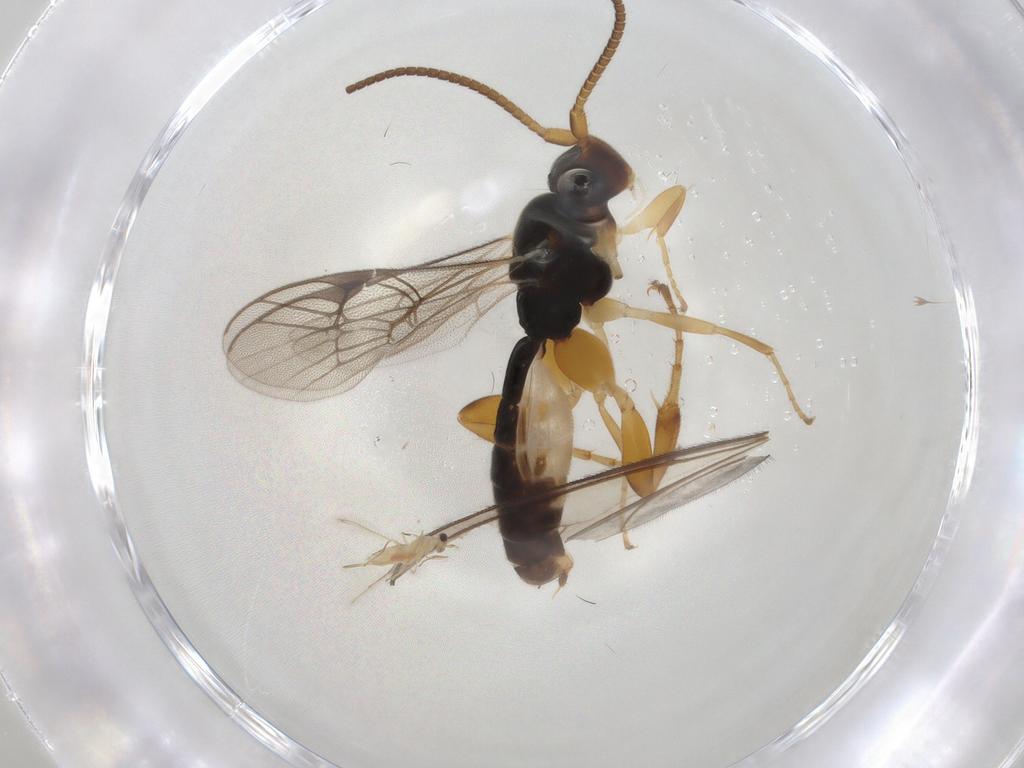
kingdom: Animalia
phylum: Arthropoda
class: Insecta
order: Hymenoptera
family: Ichneumonidae
